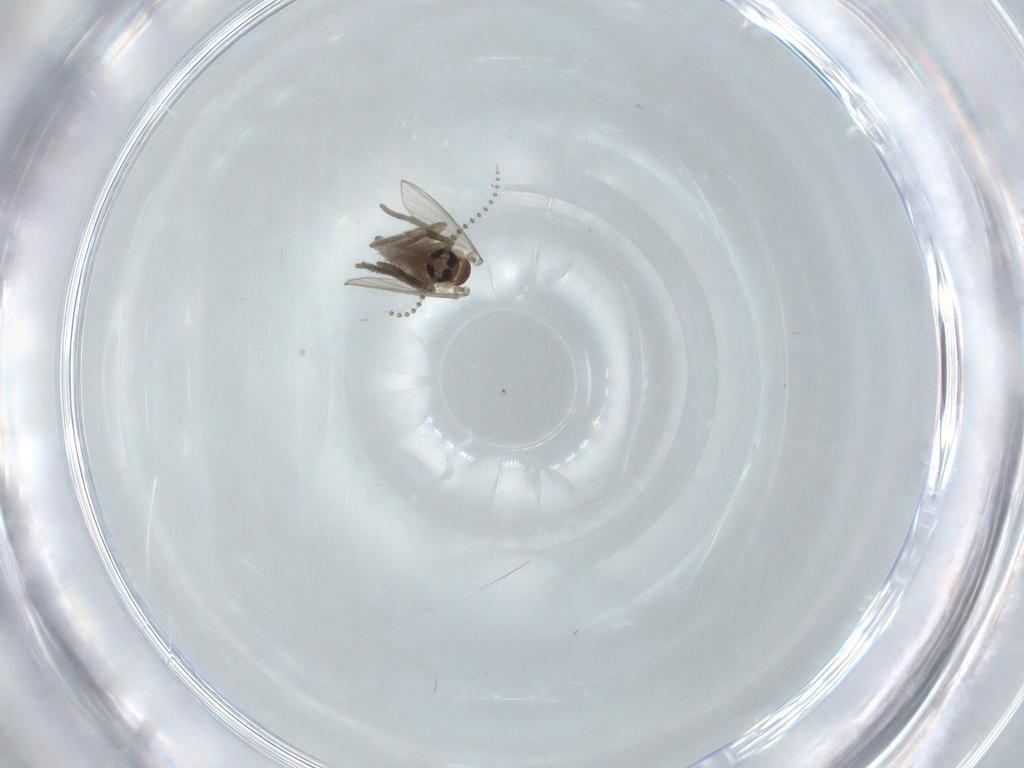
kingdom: Animalia
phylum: Arthropoda
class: Insecta
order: Diptera
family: Psychodidae
